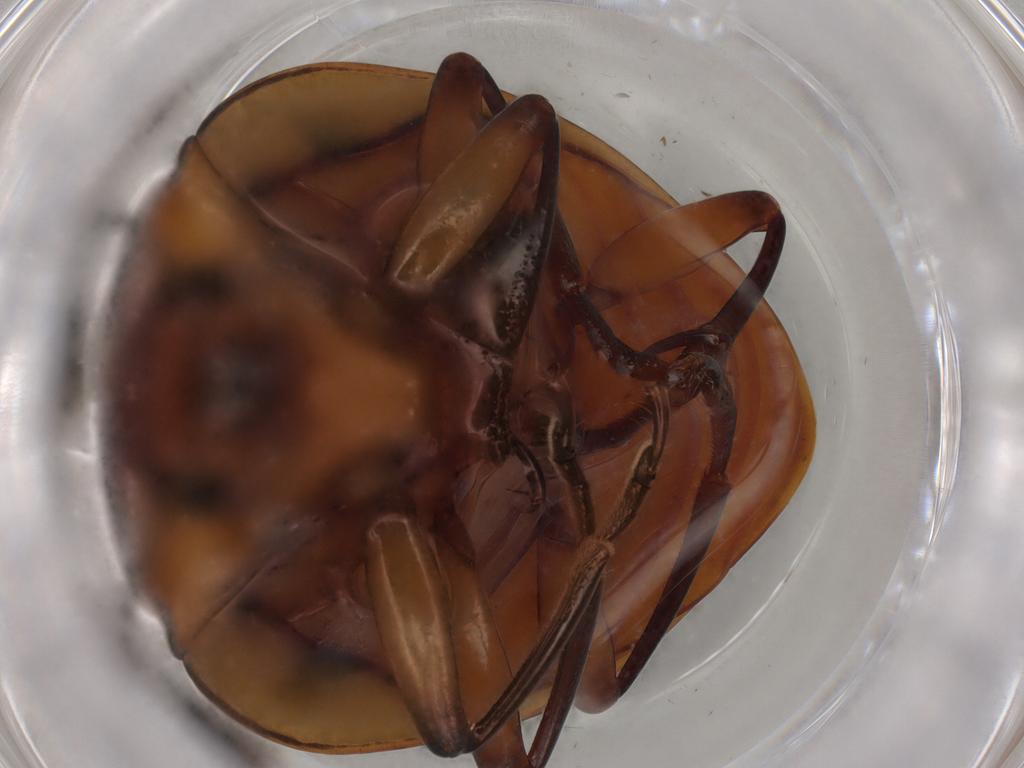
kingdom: Animalia
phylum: Arthropoda
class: Insecta
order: Coleoptera
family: Erotylidae
